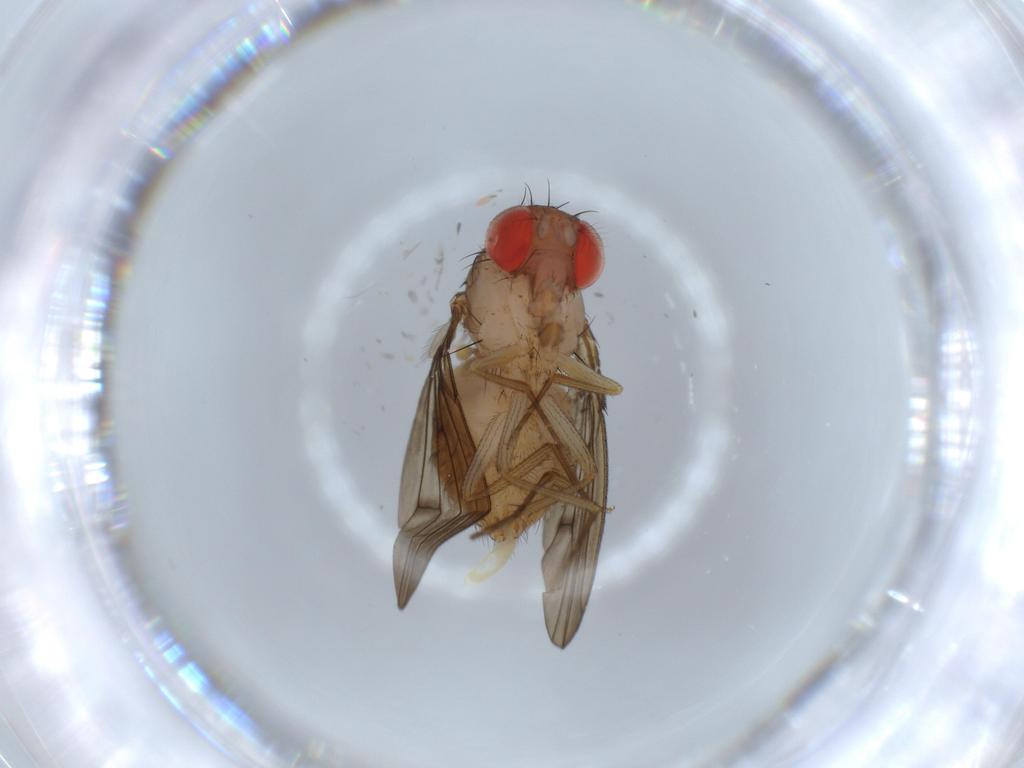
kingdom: Animalia
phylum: Arthropoda
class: Insecta
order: Diptera
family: Drosophilidae
